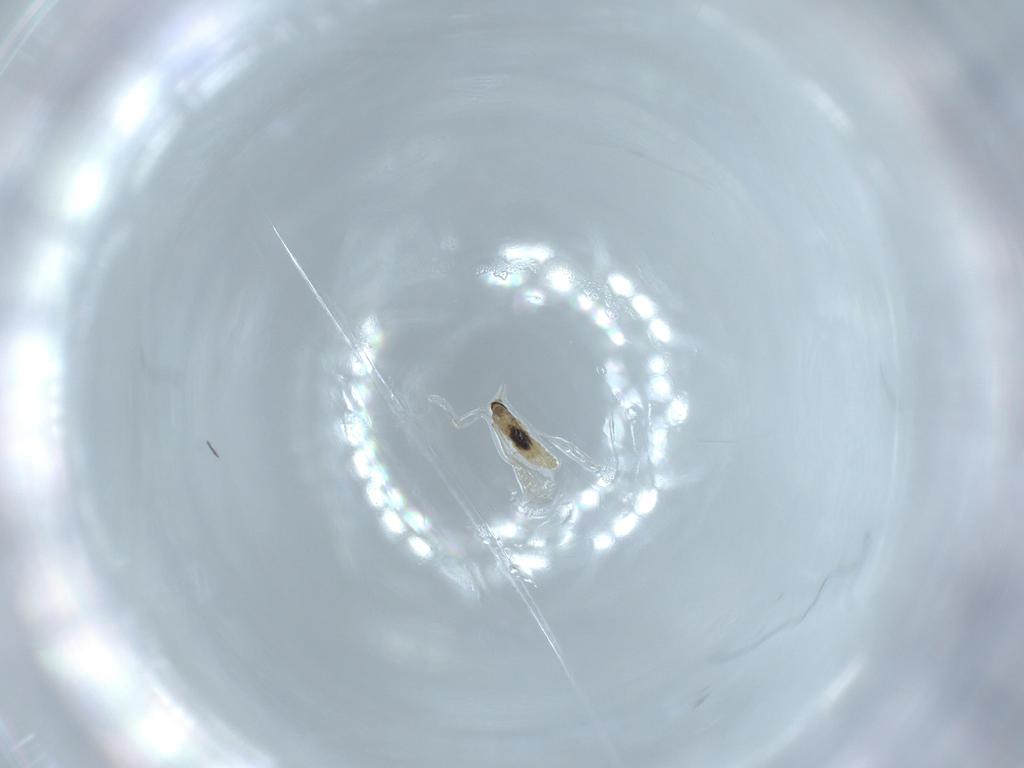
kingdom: Animalia
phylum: Arthropoda
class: Insecta
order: Diptera
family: Cecidomyiidae
